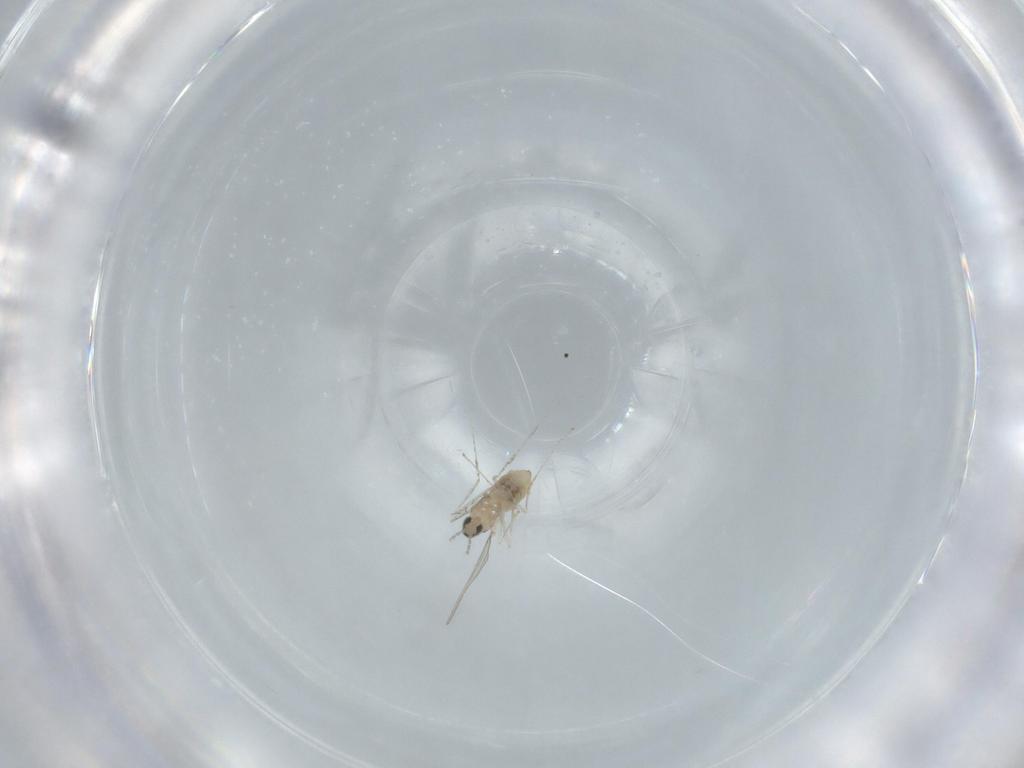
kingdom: Animalia
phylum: Arthropoda
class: Insecta
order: Diptera
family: Cecidomyiidae
